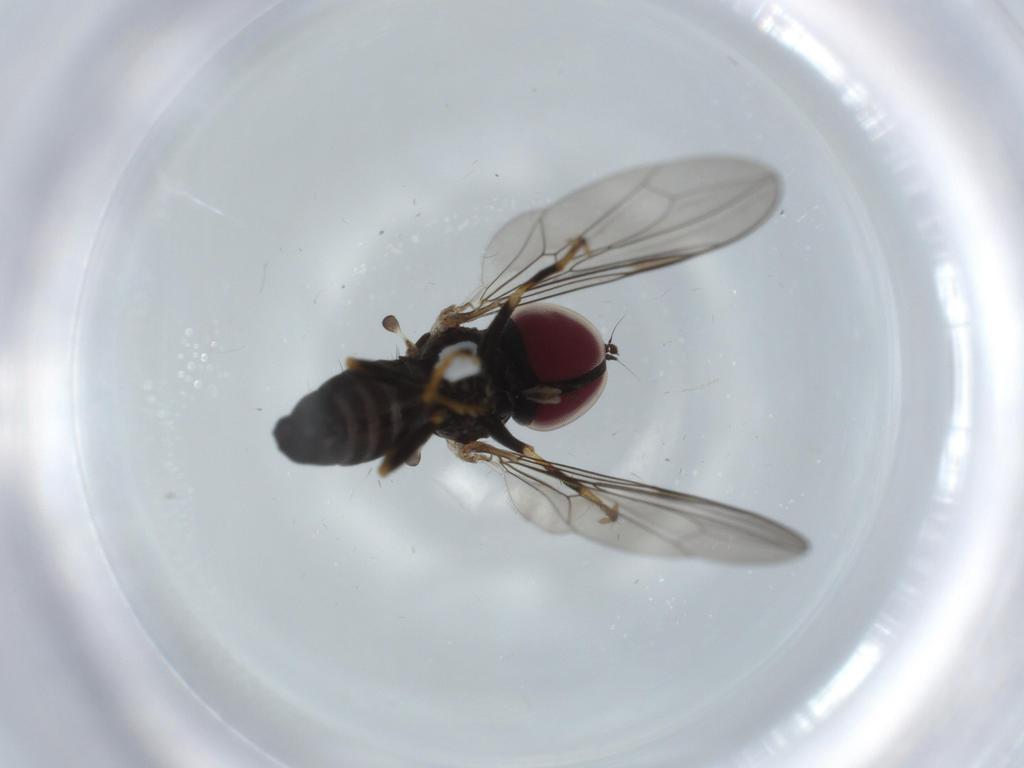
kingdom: Animalia
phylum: Arthropoda
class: Insecta
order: Diptera
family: Pipunculidae
